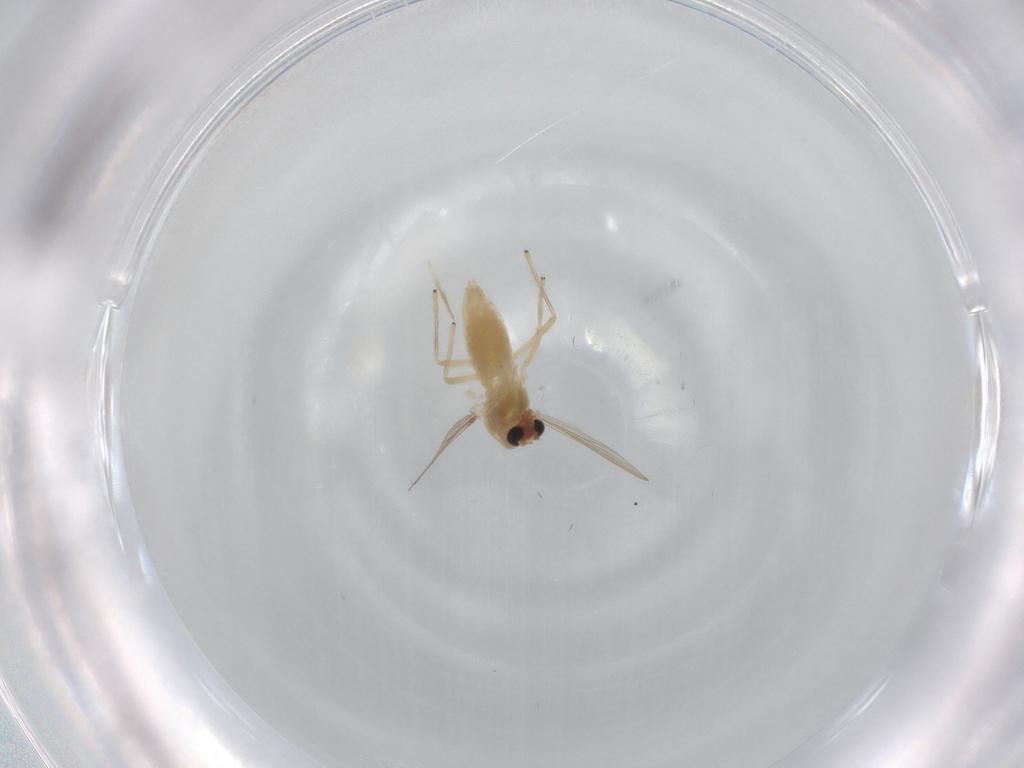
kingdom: Animalia
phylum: Arthropoda
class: Insecta
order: Diptera
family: Chironomidae
